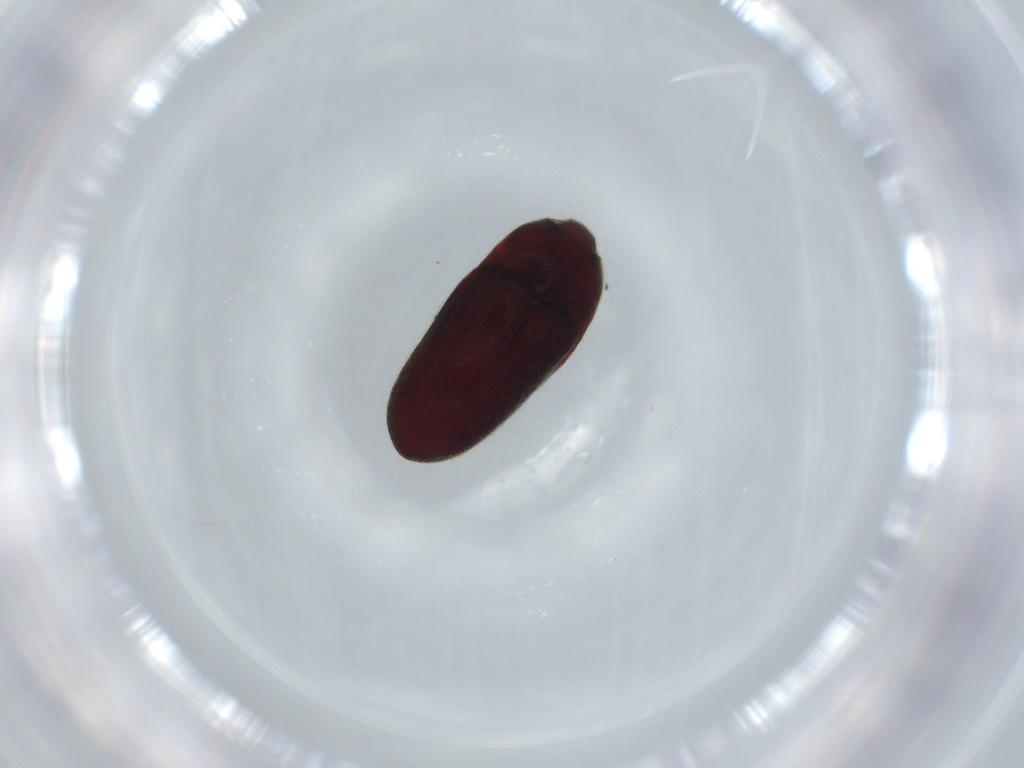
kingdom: Animalia
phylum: Arthropoda
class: Insecta
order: Coleoptera
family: Throscidae
